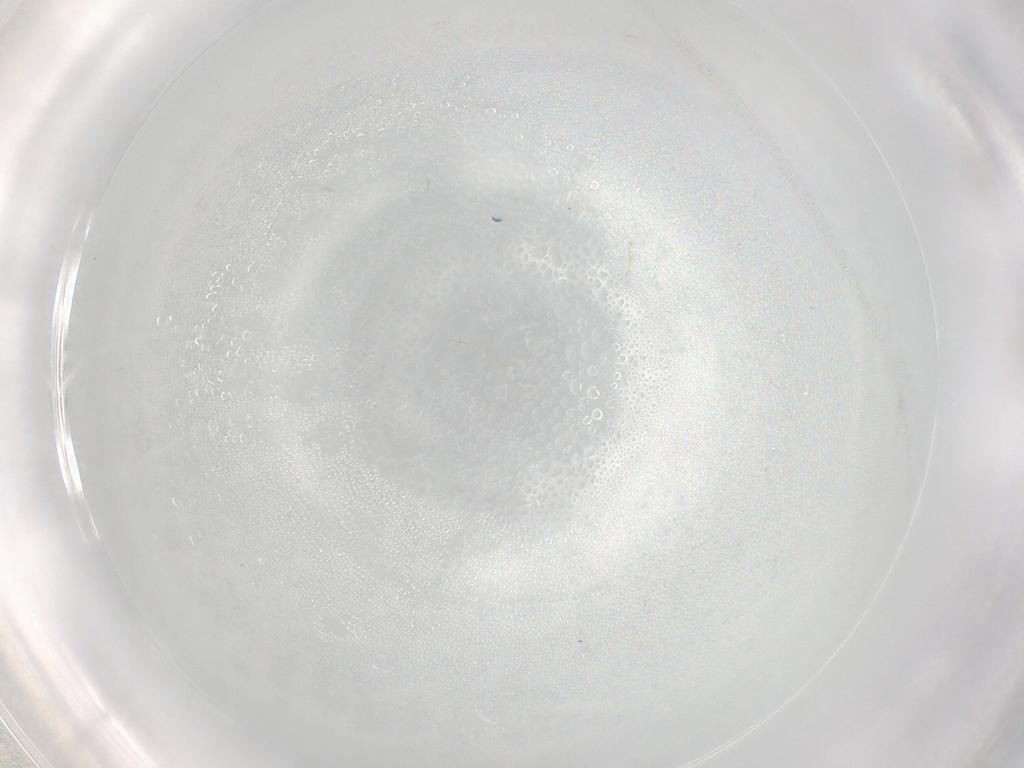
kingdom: Animalia
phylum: Arthropoda
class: Insecta
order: Diptera
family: Cecidomyiidae
